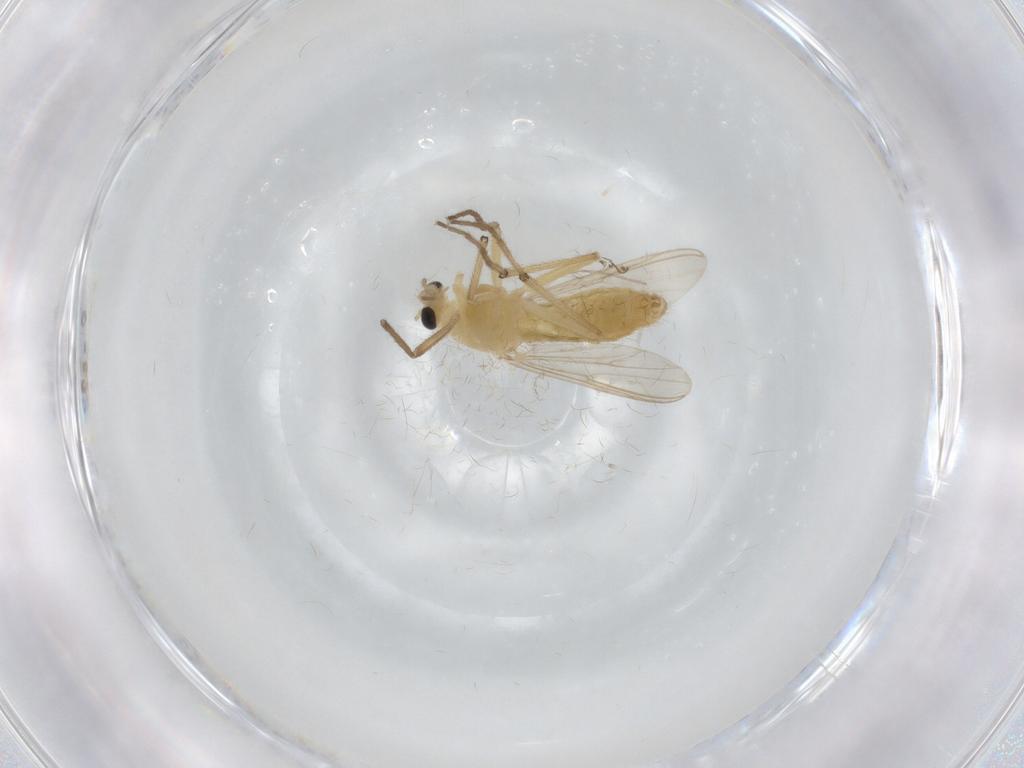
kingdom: Animalia
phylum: Arthropoda
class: Insecta
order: Diptera
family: Chironomidae
